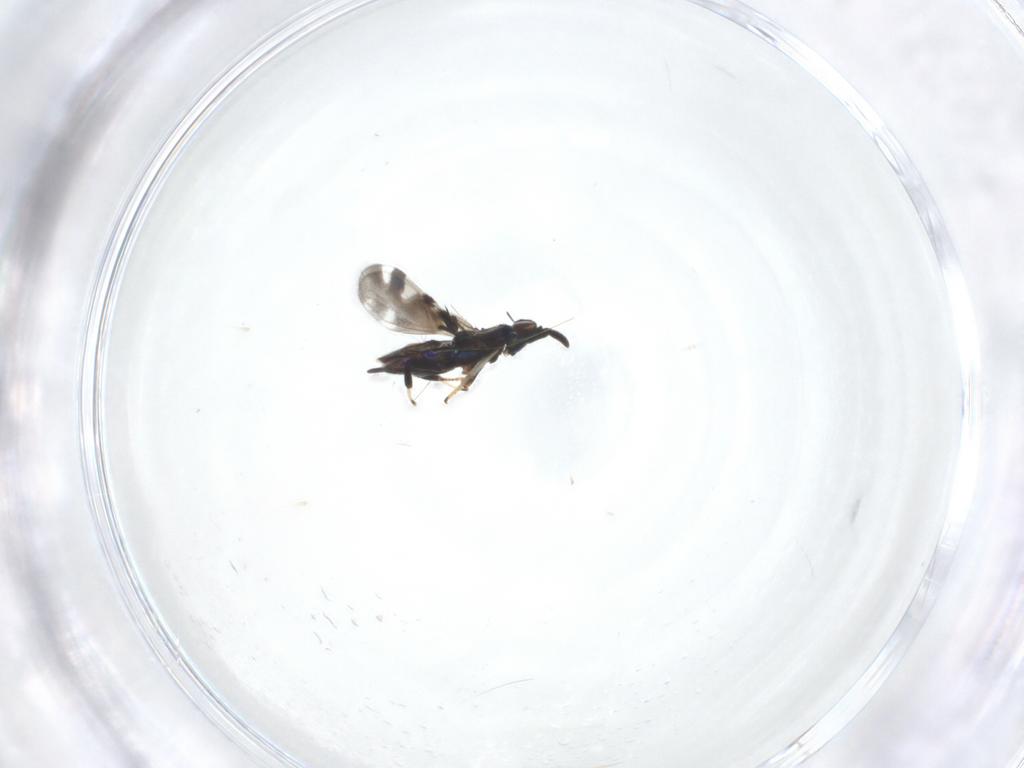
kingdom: Animalia
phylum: Arthropoda
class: Insecta
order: Hymenoptera
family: Encyrtidae
